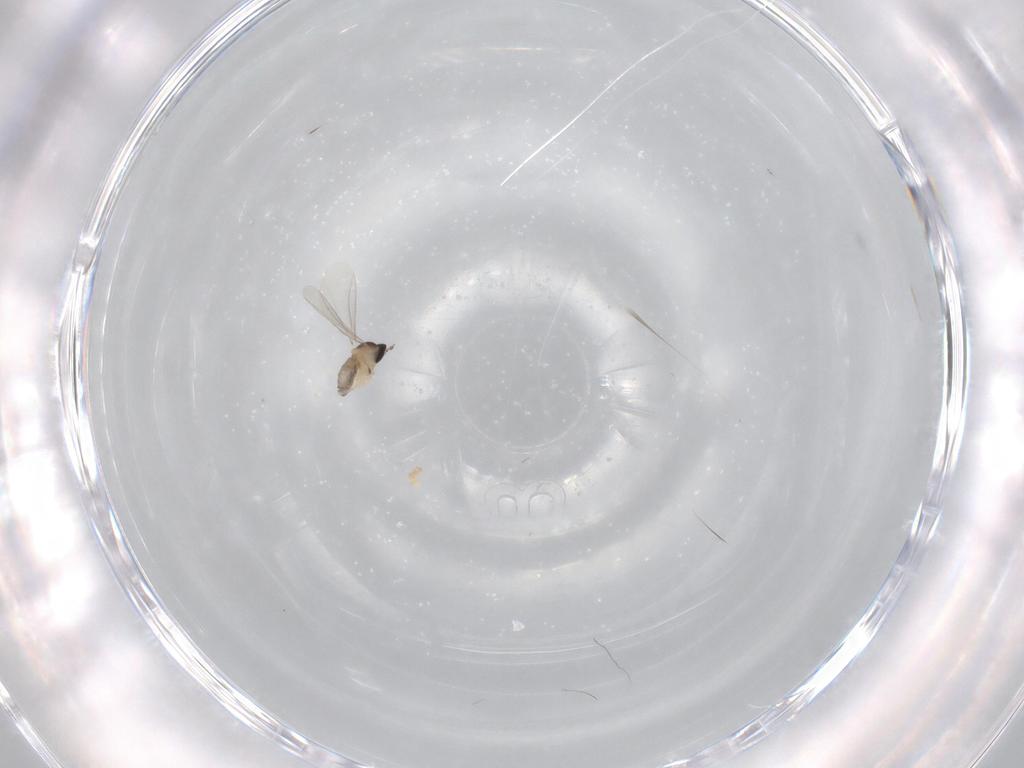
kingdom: Animalia
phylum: Arthropoda
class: Insecta
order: Diptera
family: Cecidomyiidae
